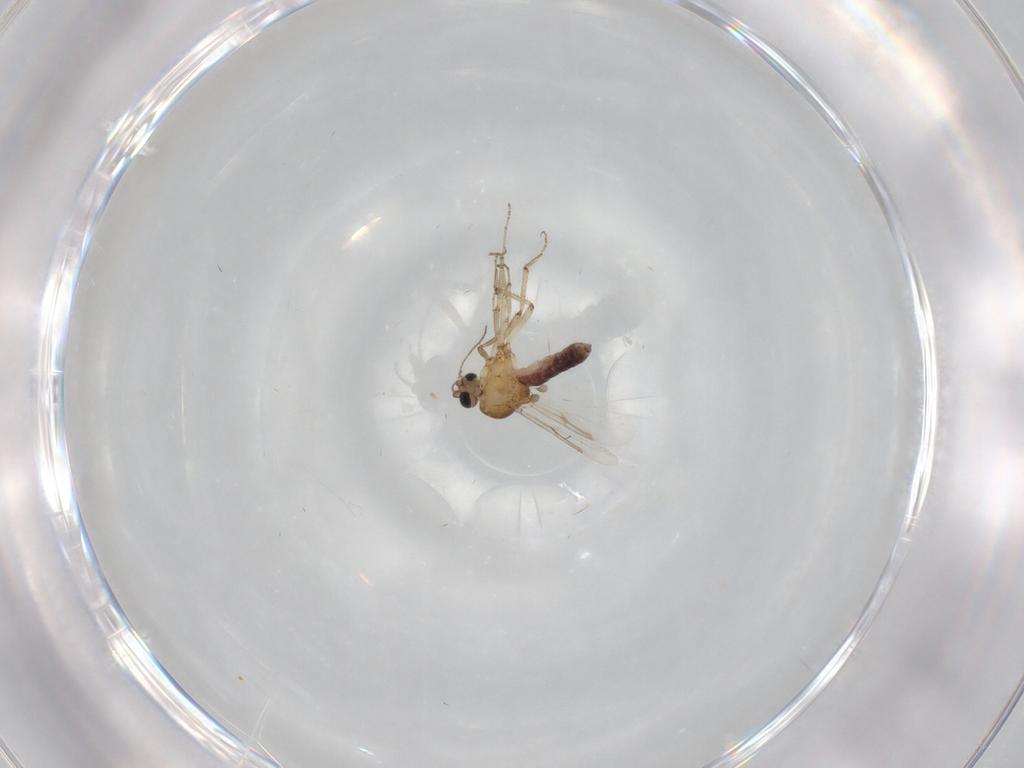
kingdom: Animalia
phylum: Arthropoda
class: Insecta
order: Diptera
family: Ceratopogonidae
